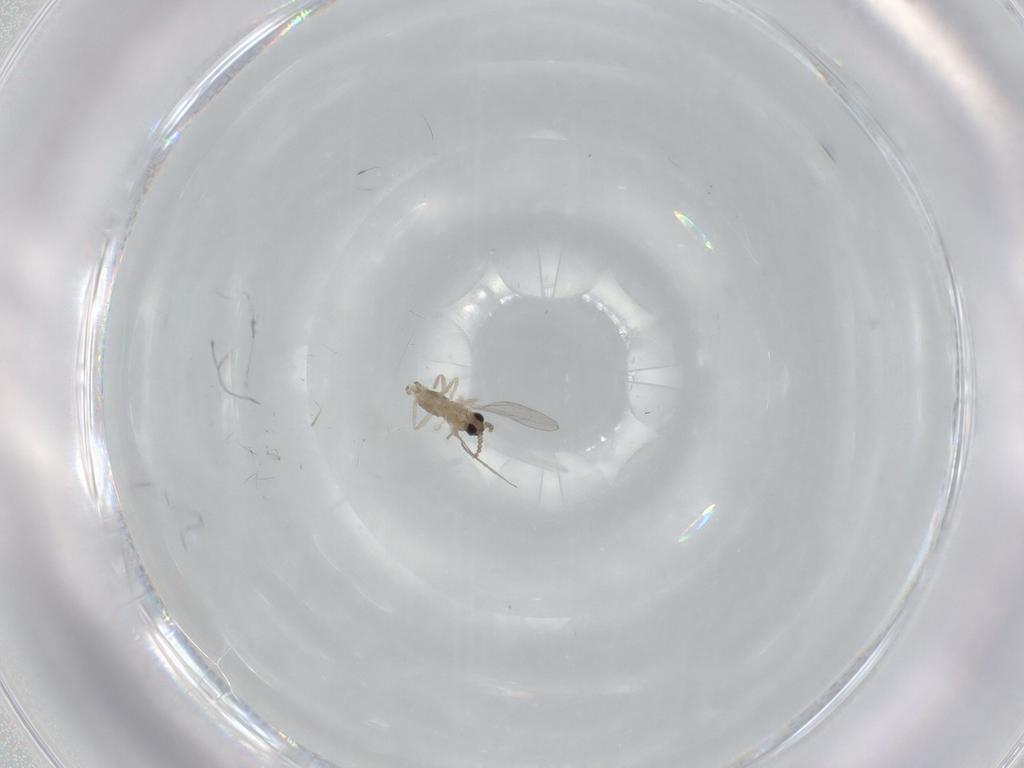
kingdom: Animalia
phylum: Arthropoda
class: Insecta
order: Diptera
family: Cecidomyiidae
